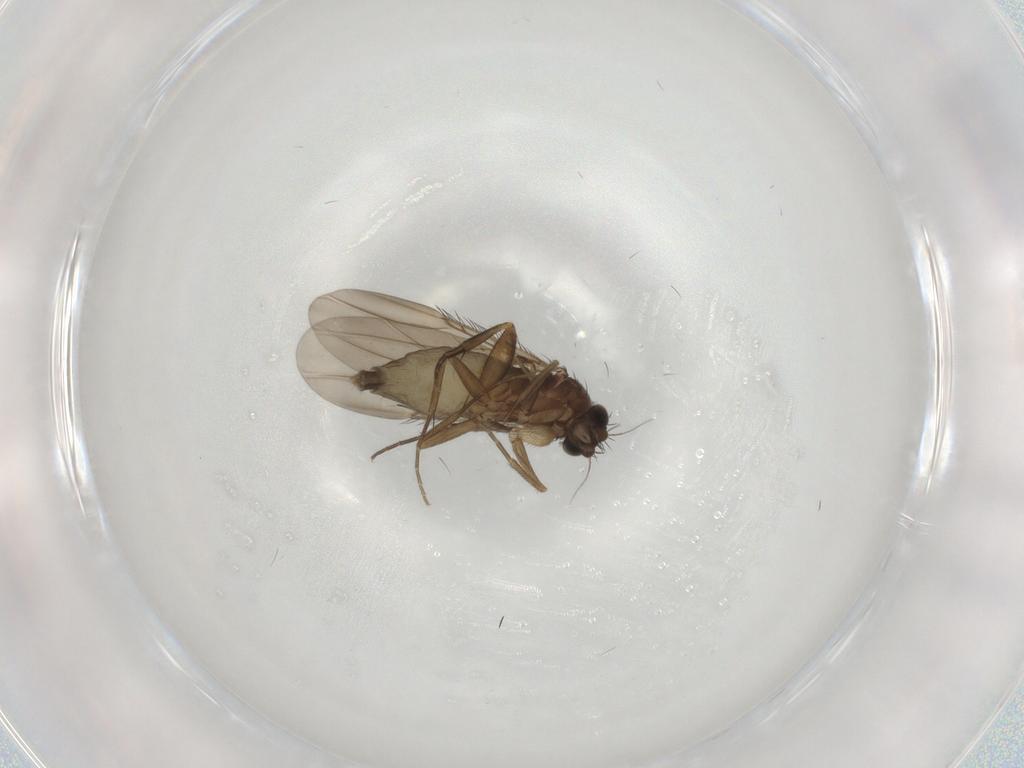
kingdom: Animalia
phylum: Arthropoda
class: Insecta
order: Diptera
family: Phoridae
